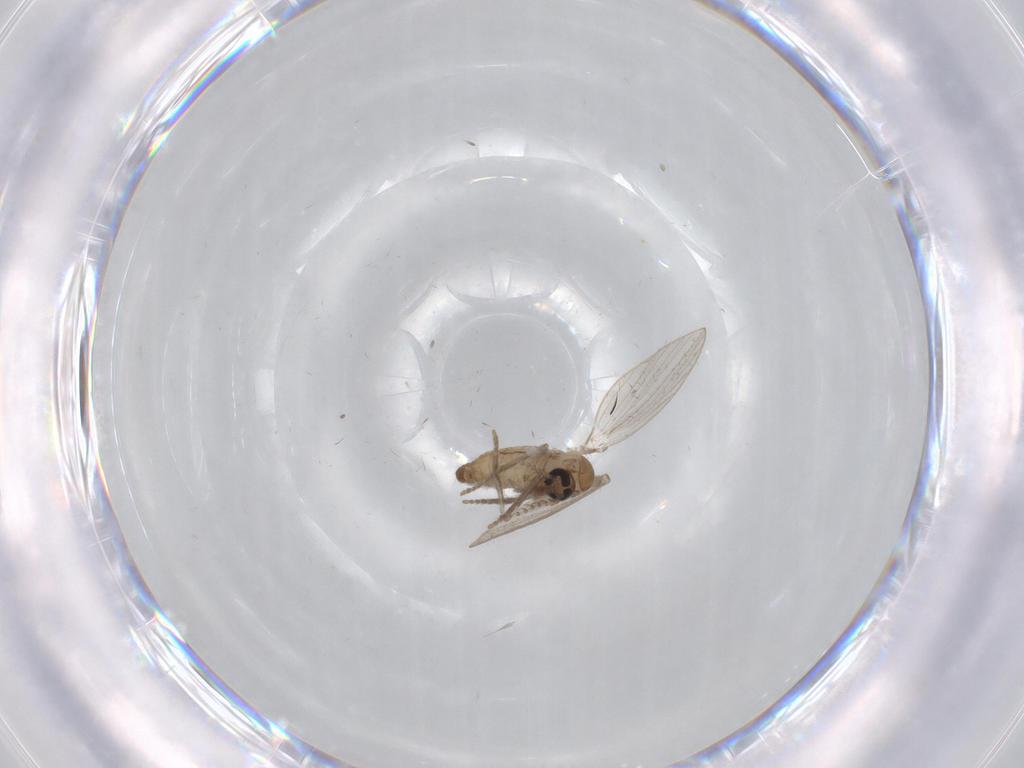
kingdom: Animalia
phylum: Arthropoda
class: Insecta
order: Diptera
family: Psychodidae
